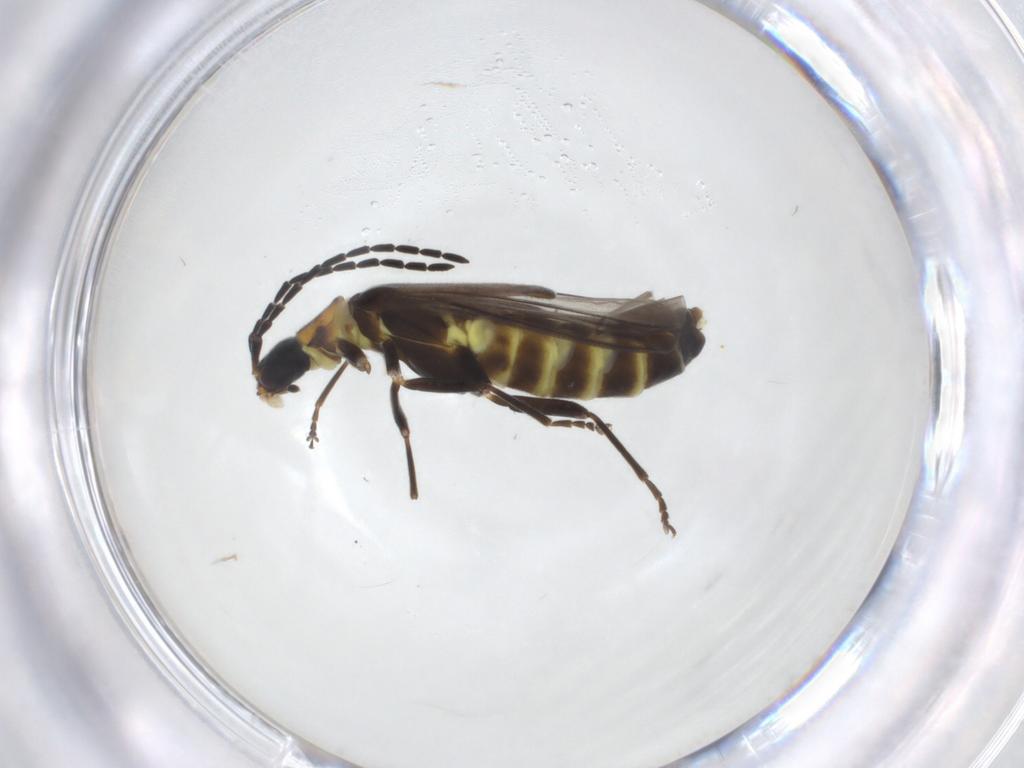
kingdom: Animalia
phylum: Arthropoda
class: Insecta
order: Coleoptera
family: Cantharidae
